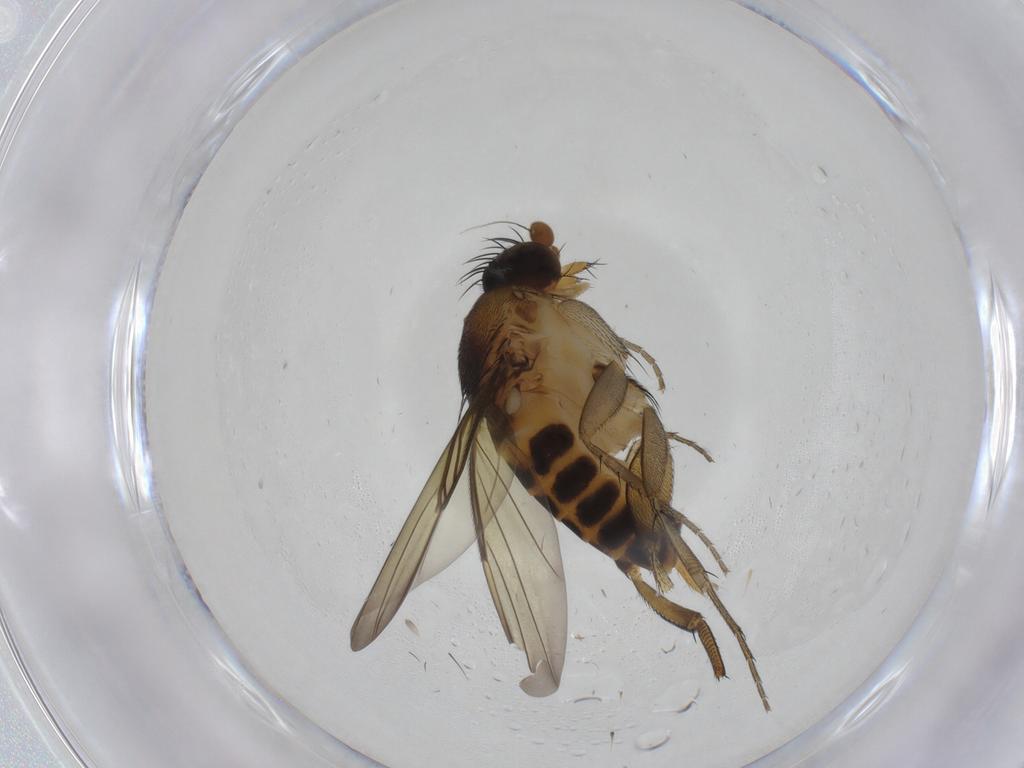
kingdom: Animalia
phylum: Arthropoda
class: Insecta
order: Diptera
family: Phoridae
